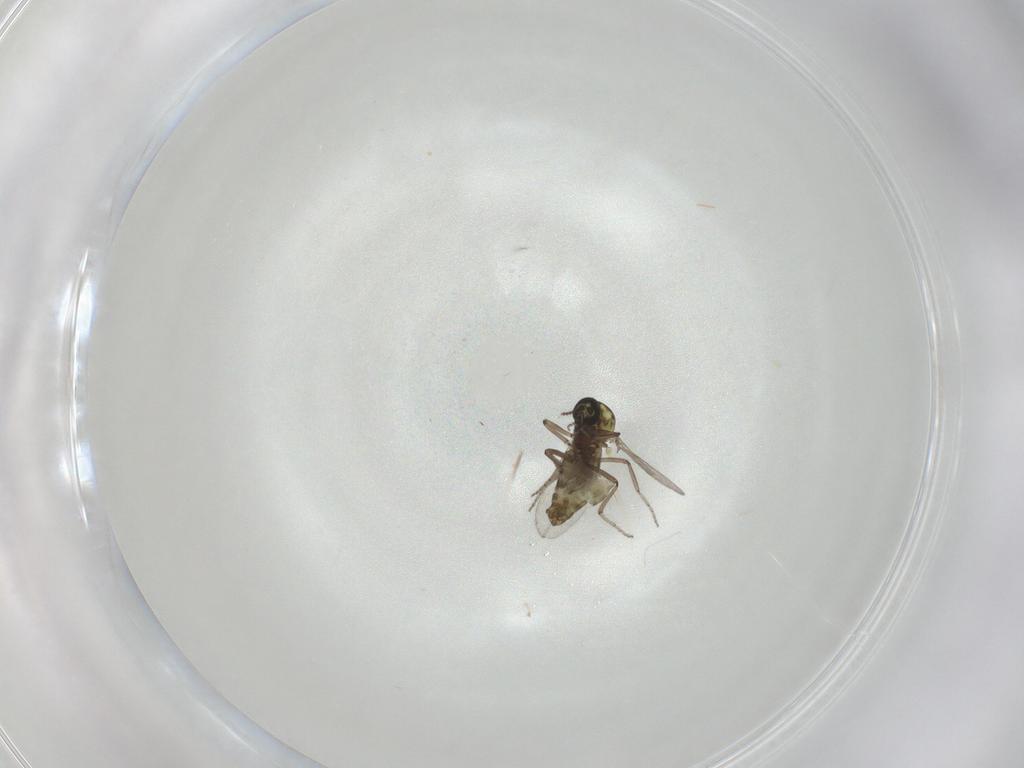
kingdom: Animalia
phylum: Arthropoda
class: Insecta
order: Diptera
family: Ceratopogonidae
